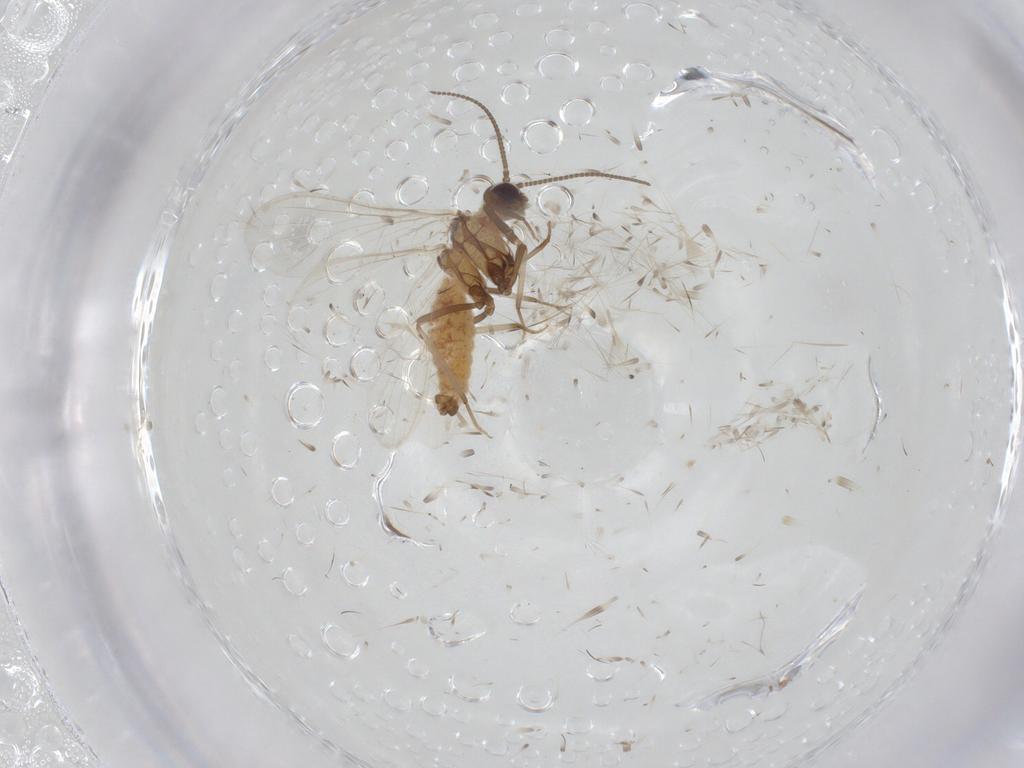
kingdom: Animalia
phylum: Arthropoda
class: Insecta
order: Neuroptera
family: Coniopterygidae
